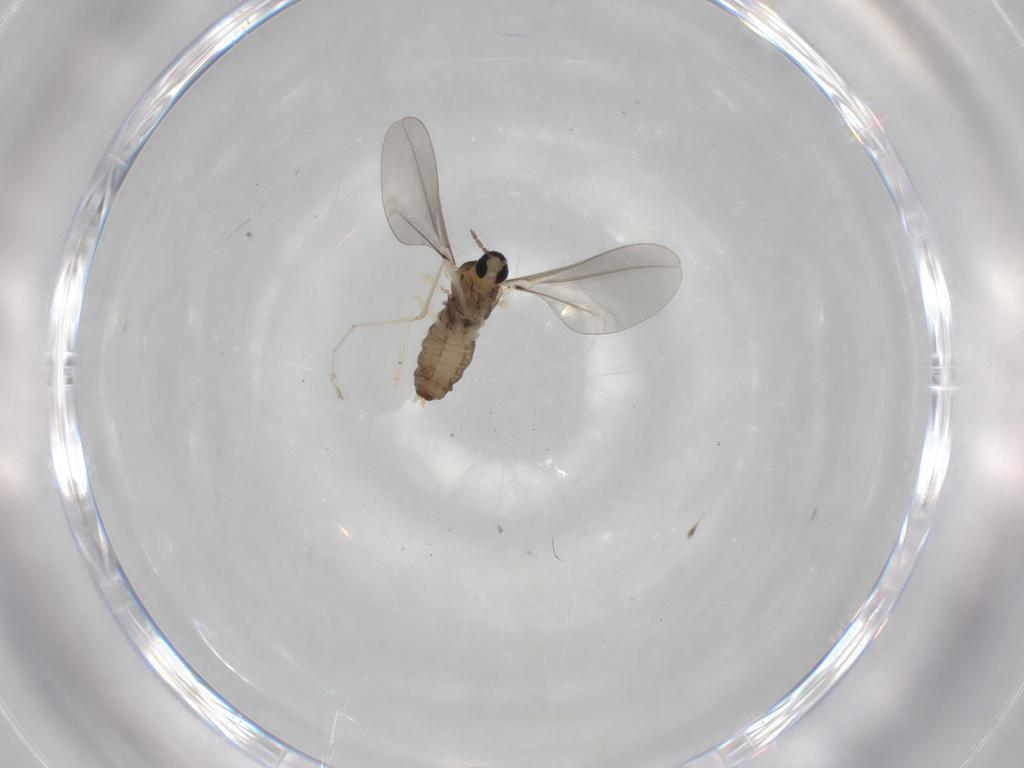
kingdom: Animalia
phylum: Arthropoda
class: Insecta
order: Diptera
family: Cecidomyiidae
